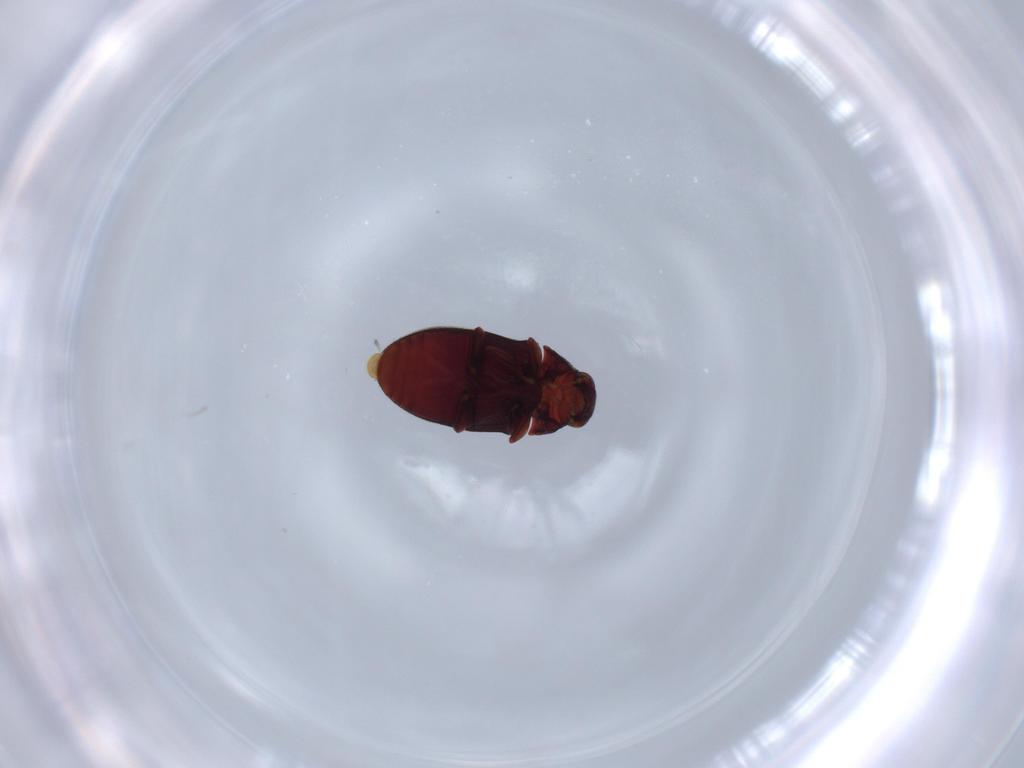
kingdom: Animalia
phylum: Arthropoda
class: Insecta
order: Coleoptera
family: Ptinidae
